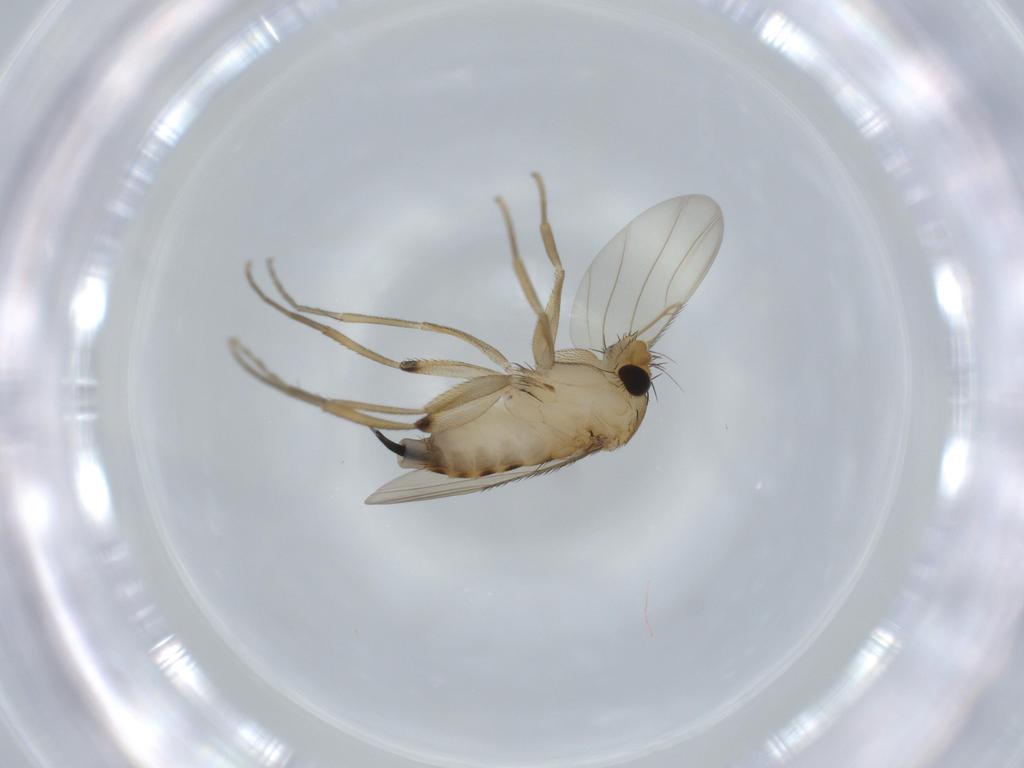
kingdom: Animalia
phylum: Arthropoda
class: Insecta
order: Diptera
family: Phoridae
